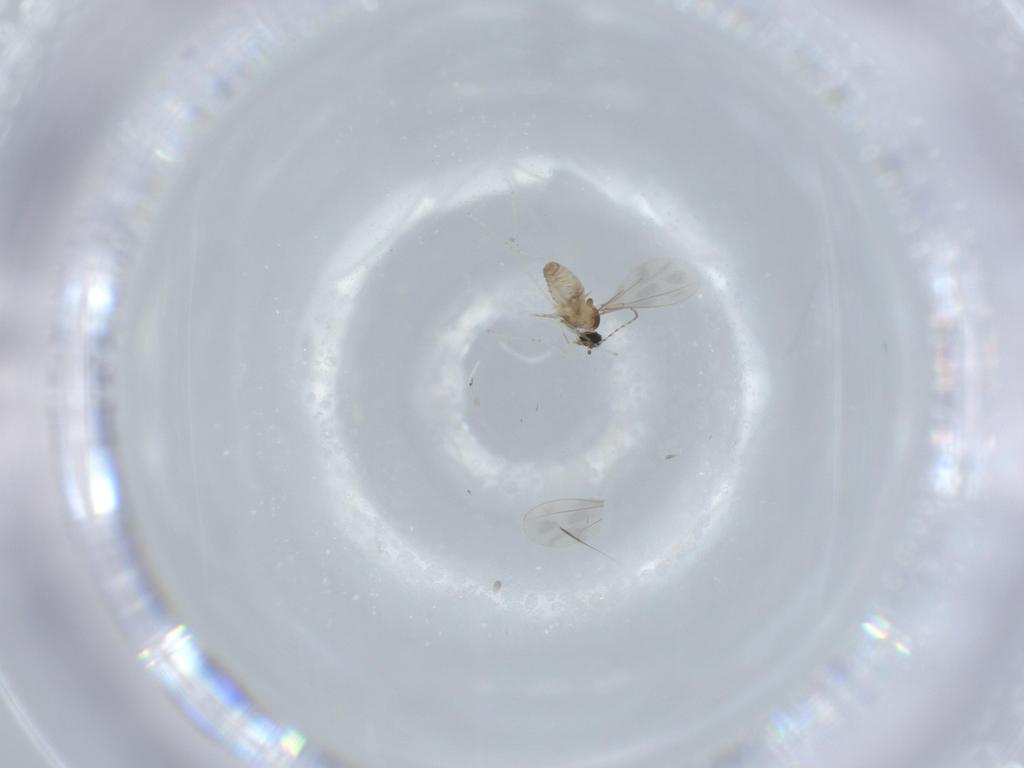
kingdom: Animalia
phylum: Arthropoda
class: Insecta
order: Diptera
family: Cecidomyiidae
